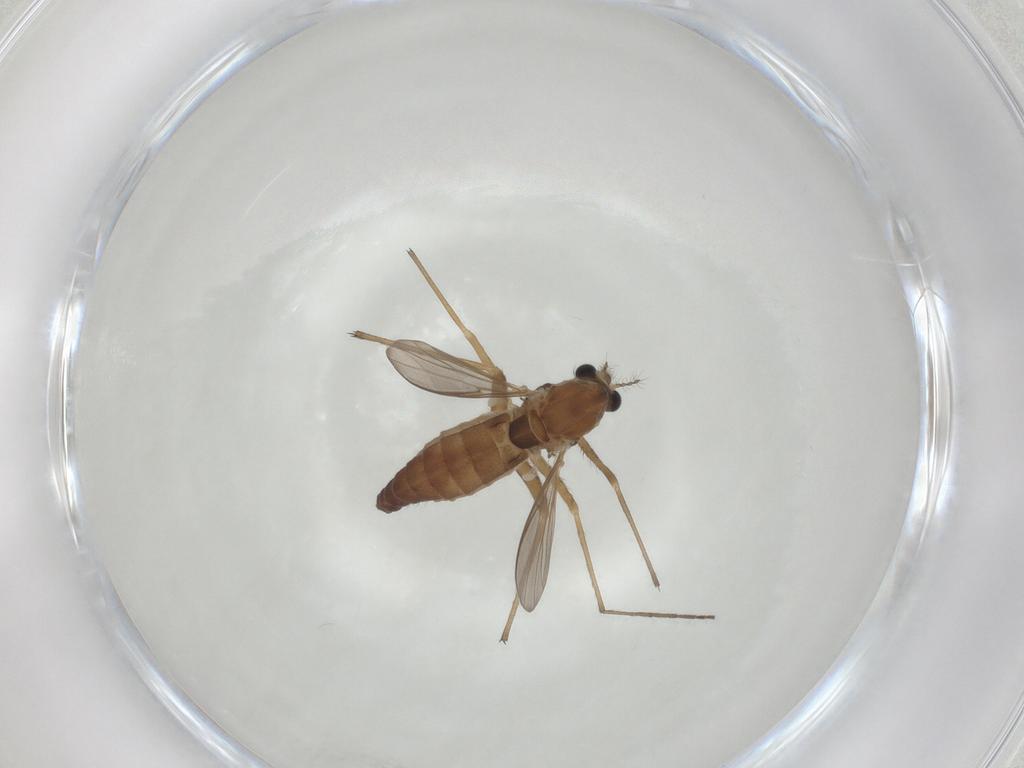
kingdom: Animalia
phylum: Arthropoda
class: Insecta
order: Diptera
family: Chironomidae
